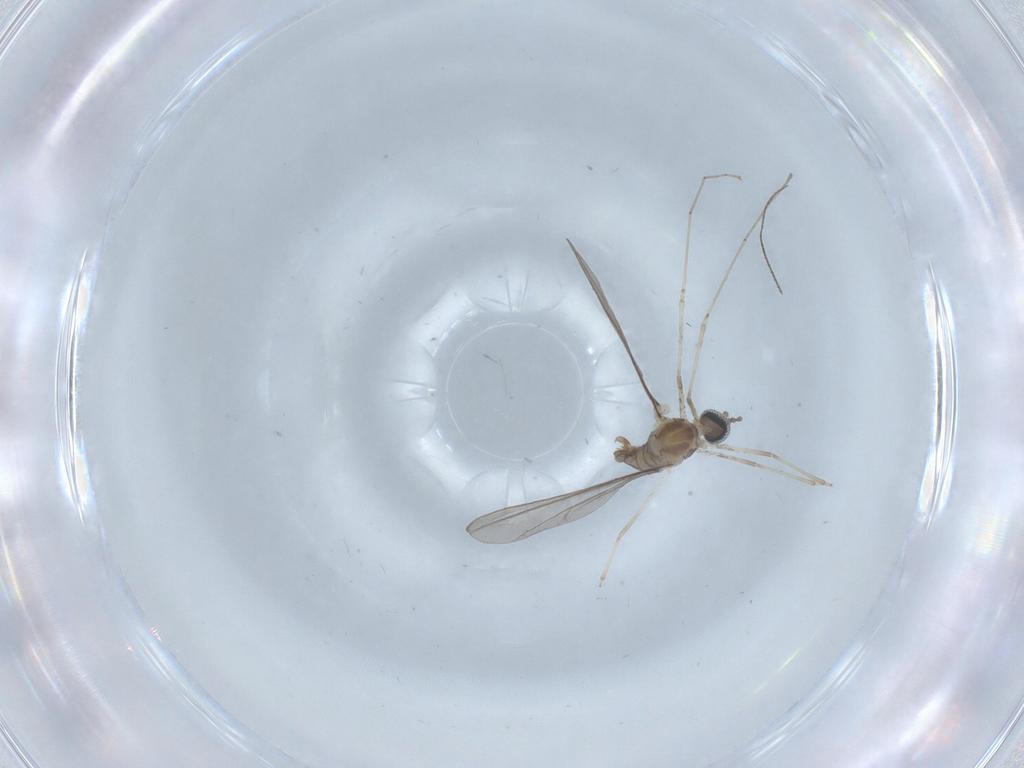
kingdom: Animalia
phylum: Arthropoda
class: Insecta
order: Diptera
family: Cecidomyiidae
